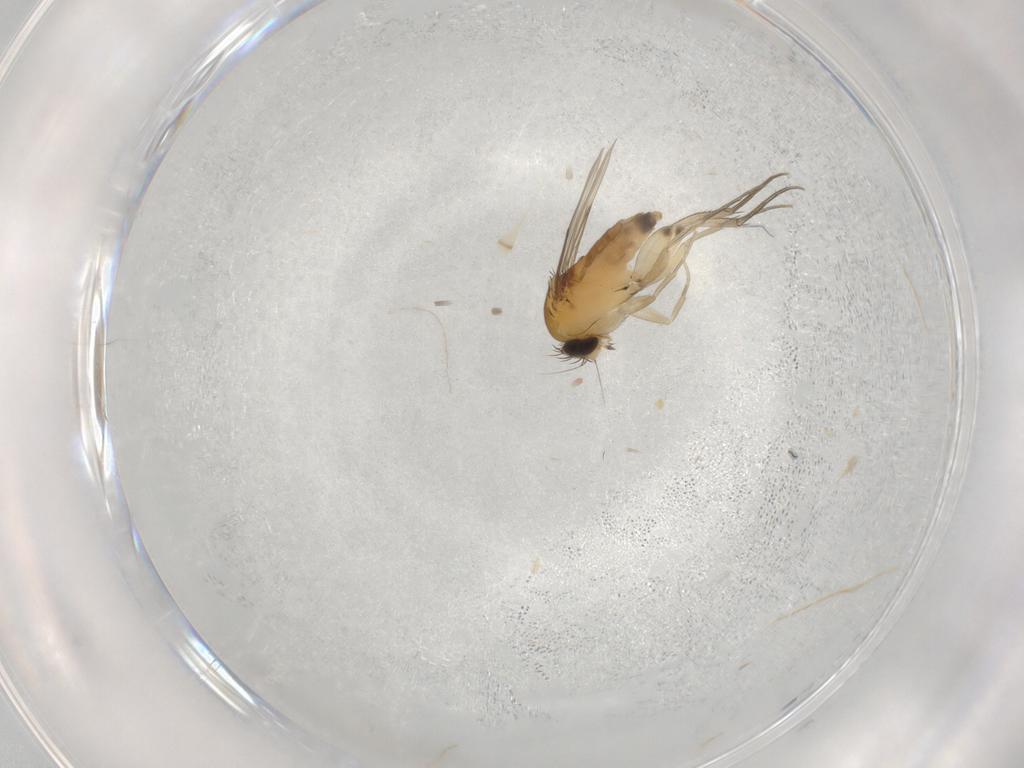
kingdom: Animalia
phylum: Arthropoda
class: Insecta
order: Diptera
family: Phoridae
